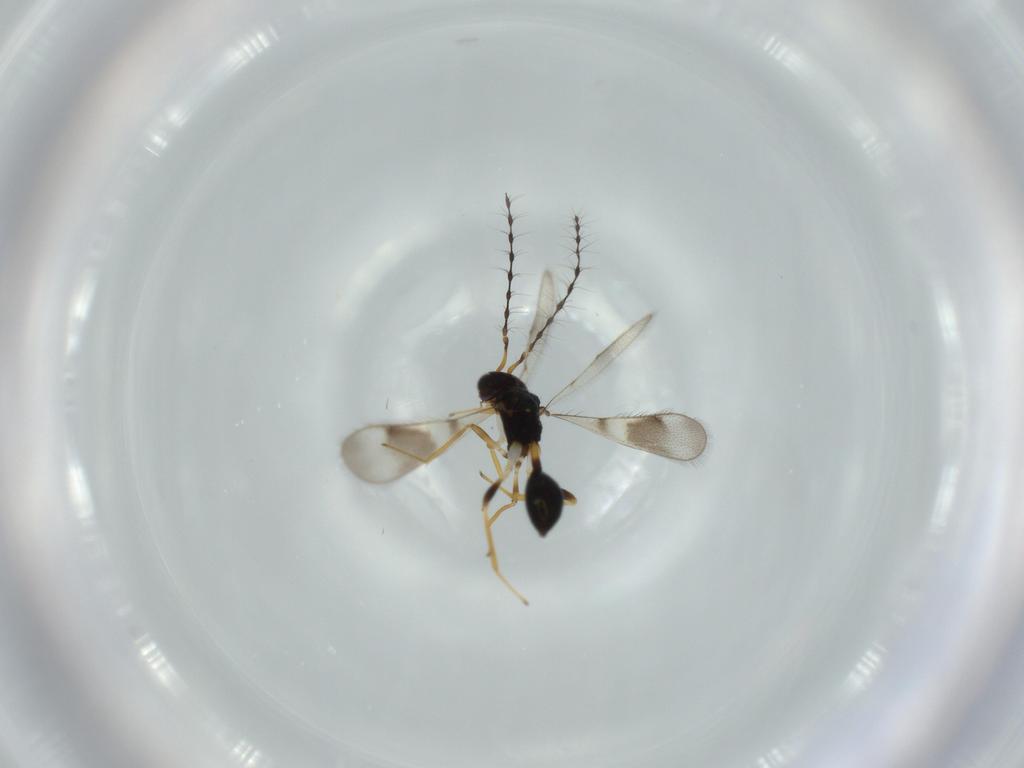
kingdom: Animalia
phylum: Arthropoda
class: Insecta
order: Hymenoptera
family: Diparidae
